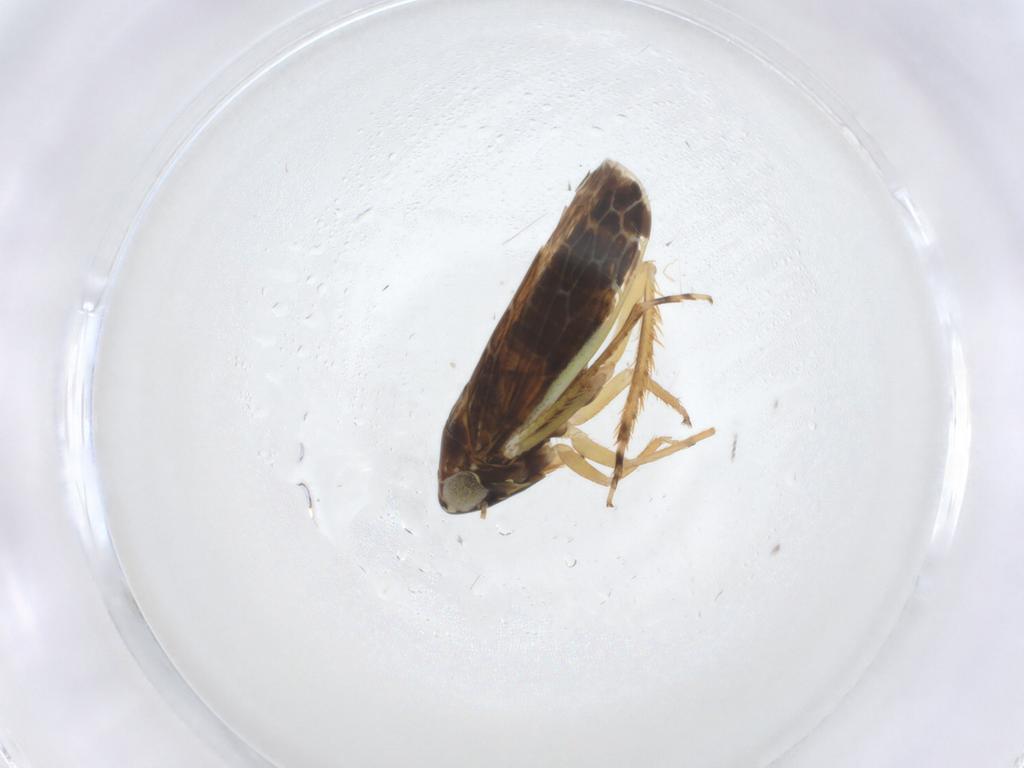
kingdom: Animalia
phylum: Arthropoda
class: Insecta
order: Hemiptera
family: Cicadellidae
